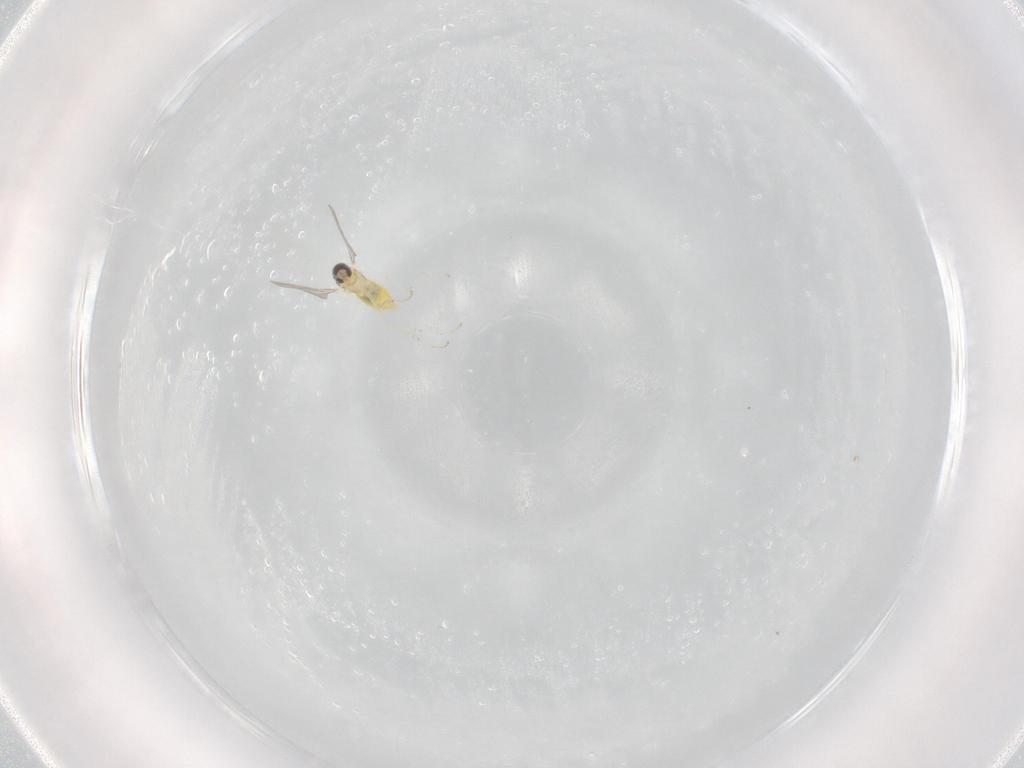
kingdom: Animalia
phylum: Arthropoda
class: Insecta
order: Diptera
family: Cecidomyiidae
